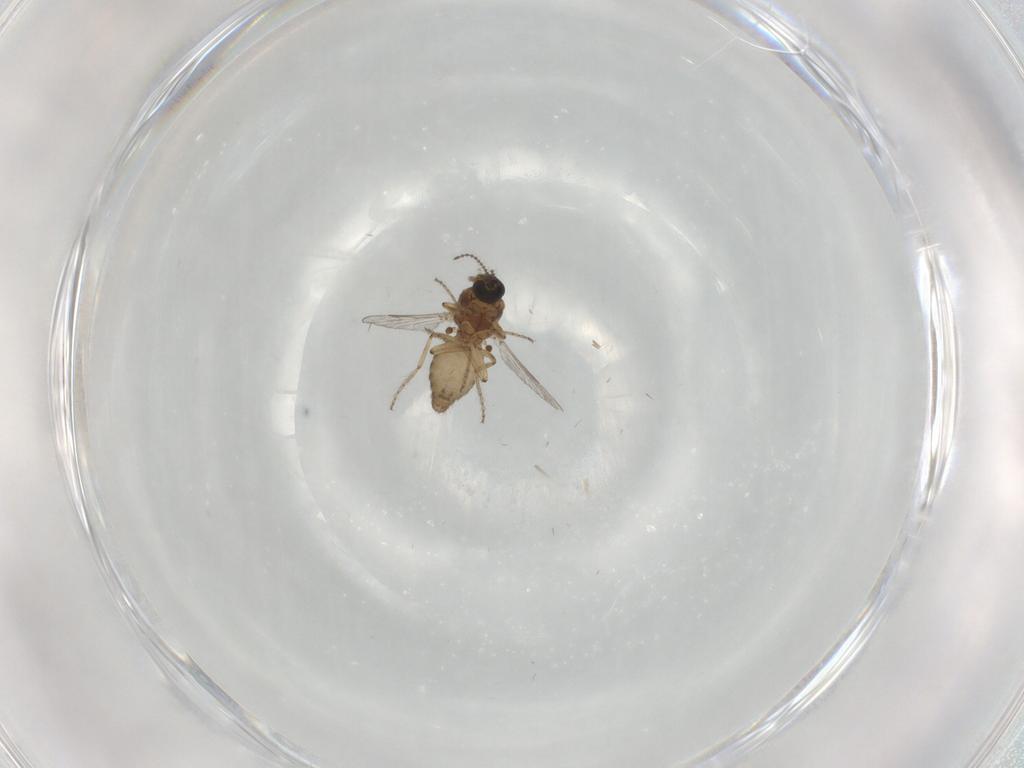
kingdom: Animalia
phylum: Arthropoda
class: Insecta
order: Diptera
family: Ceratopogonidae
